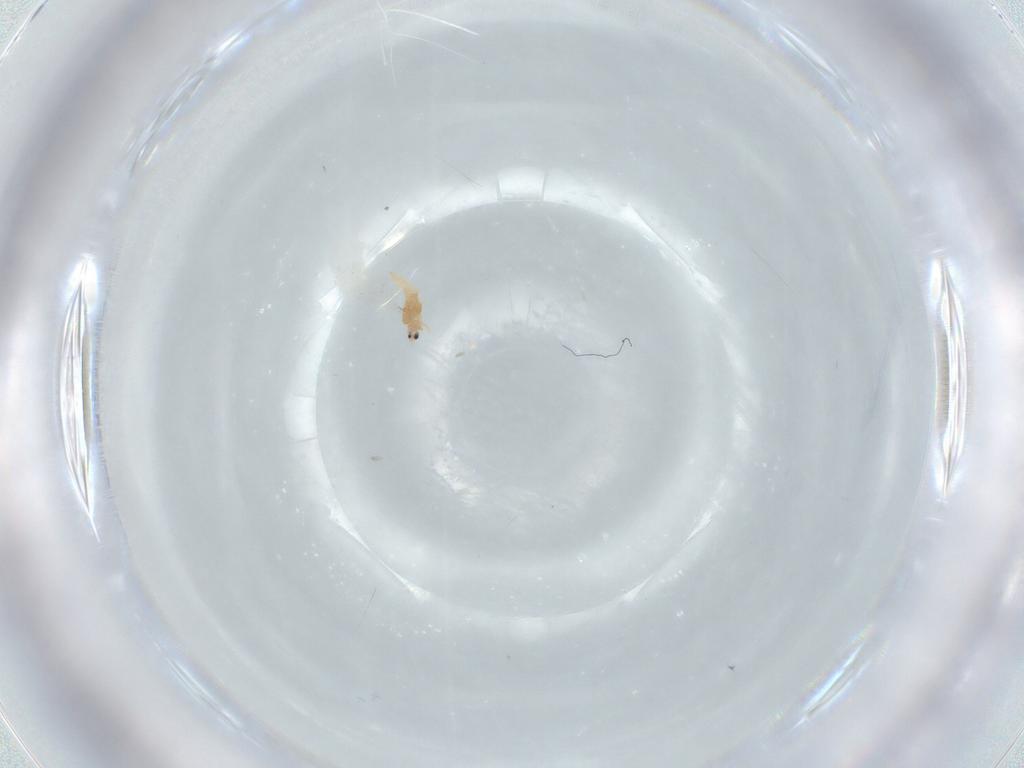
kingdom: Animalia
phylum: Arthropoda
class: Insecta
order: Hemiptera
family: Aleyrodidae
